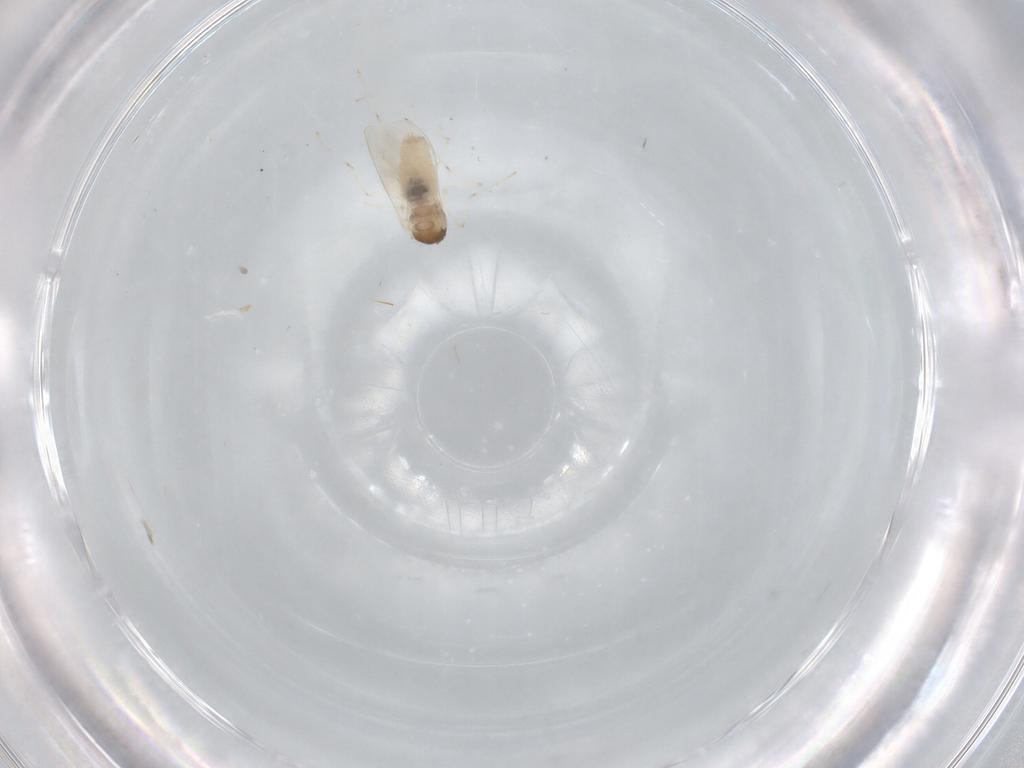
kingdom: Animalia
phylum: Arthropoda
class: Insecta
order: Diptera
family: Cecidomyiidae
